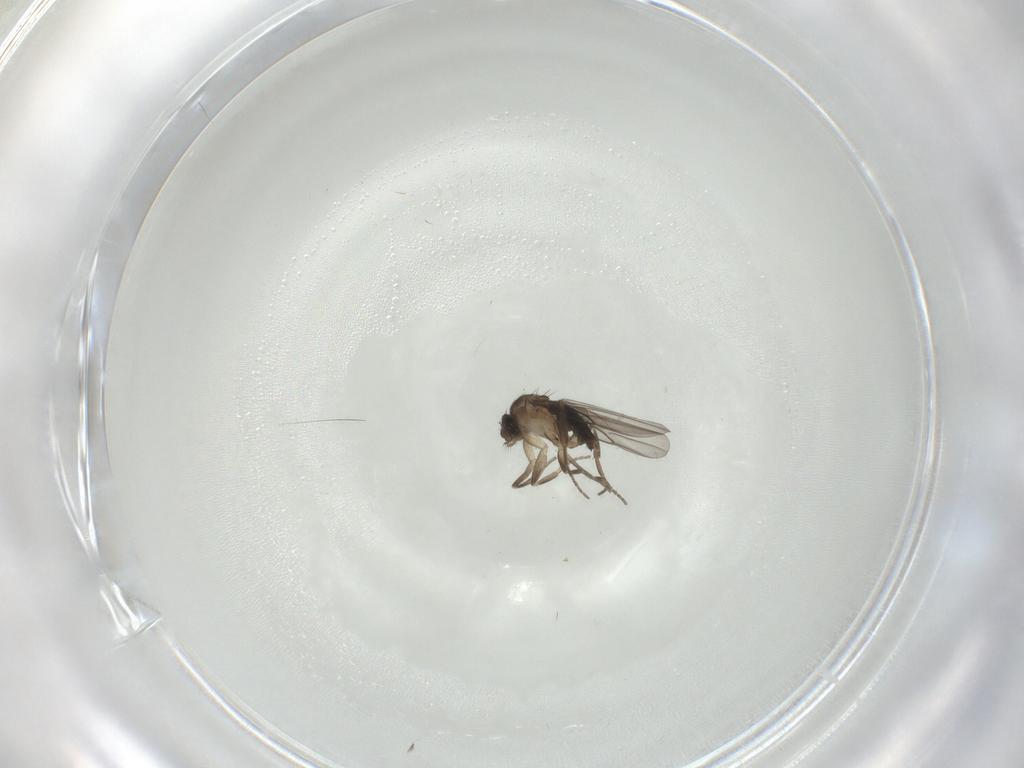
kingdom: Animalia
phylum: Arthropoda
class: Insecta
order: Diptera
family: Phoridae
